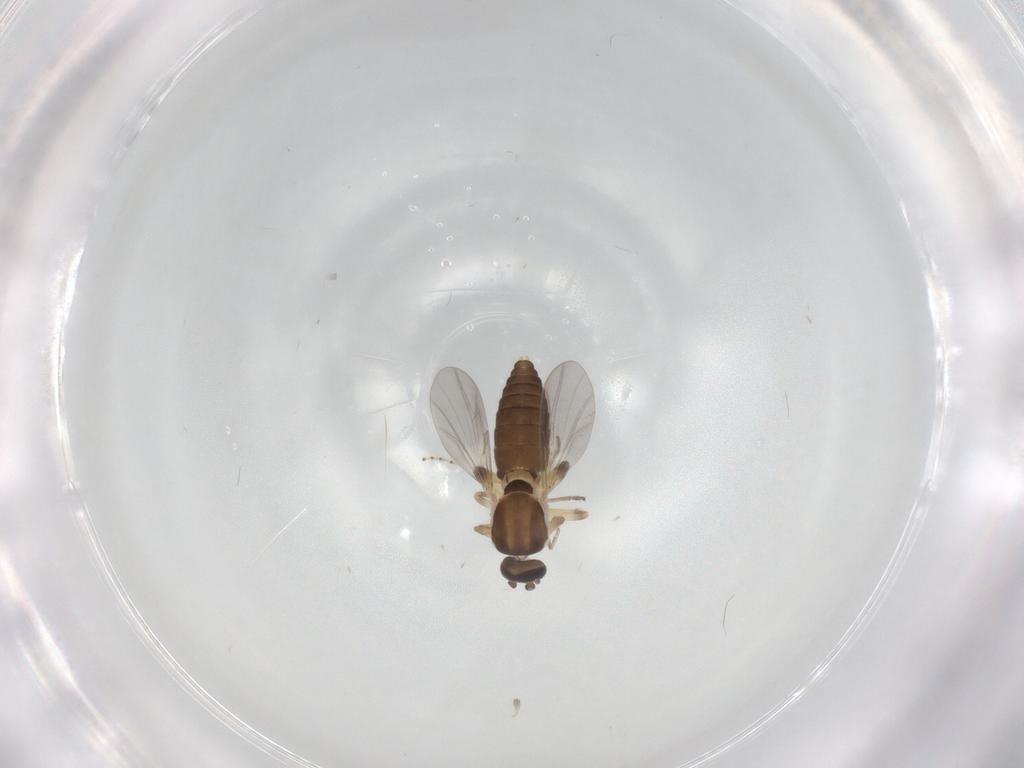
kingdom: Animalia
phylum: Arthropoda
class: Insecta
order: Diptera
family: Ceratopogonidae
